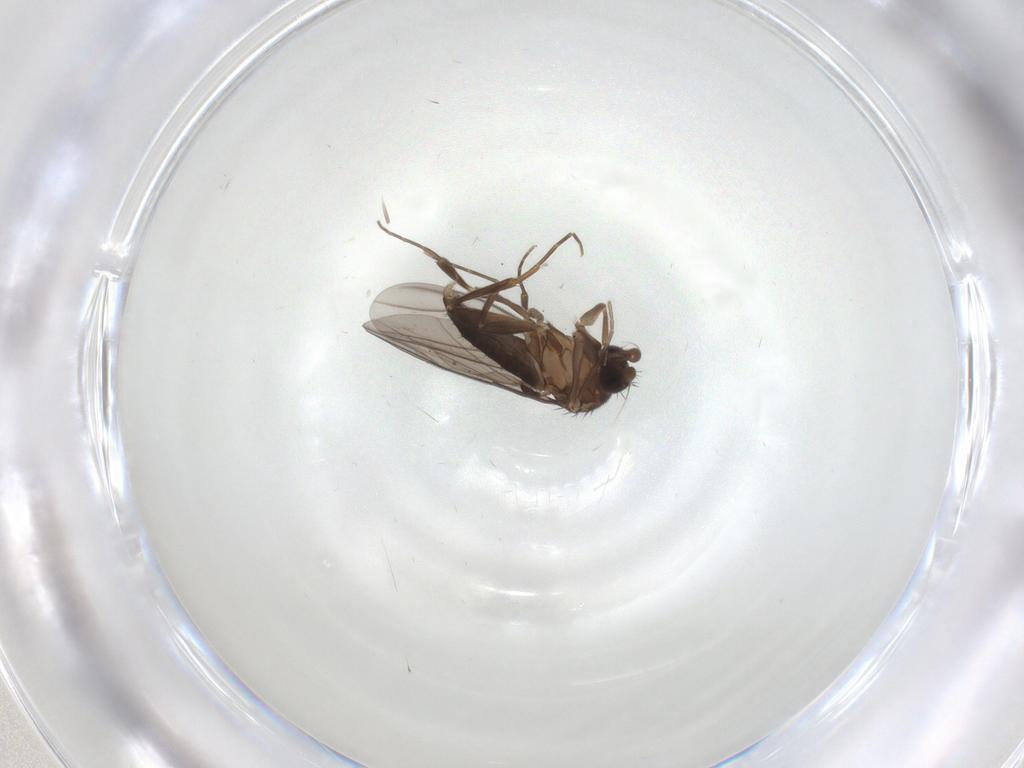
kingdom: Animalia
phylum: Arthropoda
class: Insecta
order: Diptera
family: Phoridae
